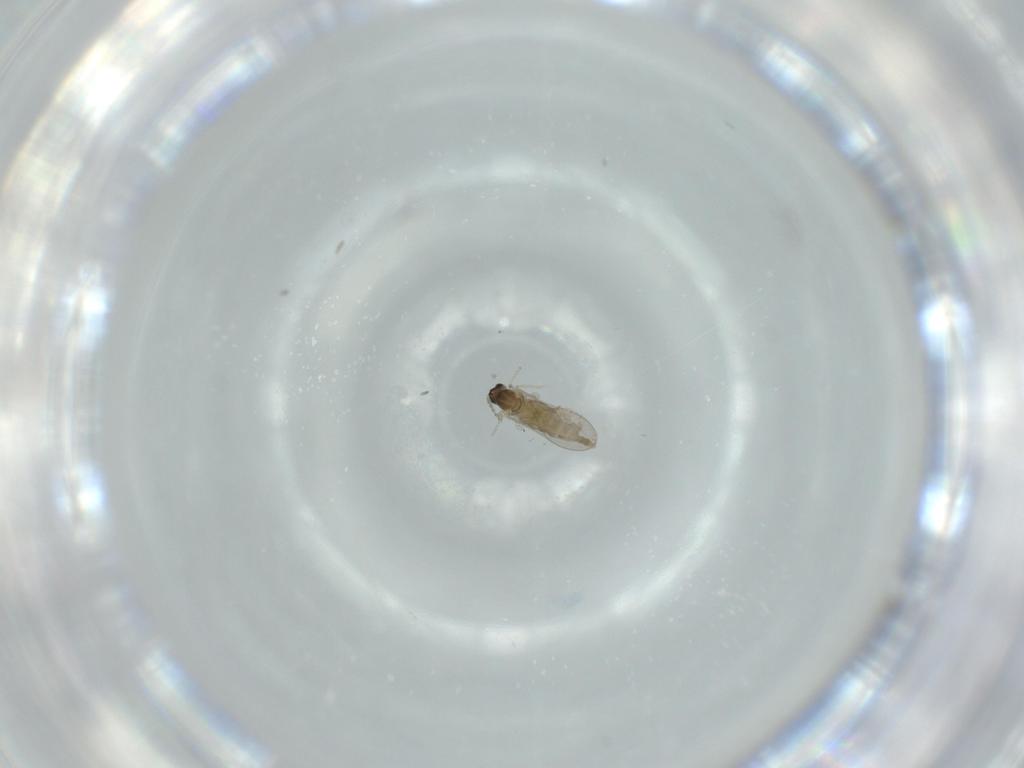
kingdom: Animalia
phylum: Arthropoda
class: Insecta
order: Diptera
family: Cecidomyiidae
